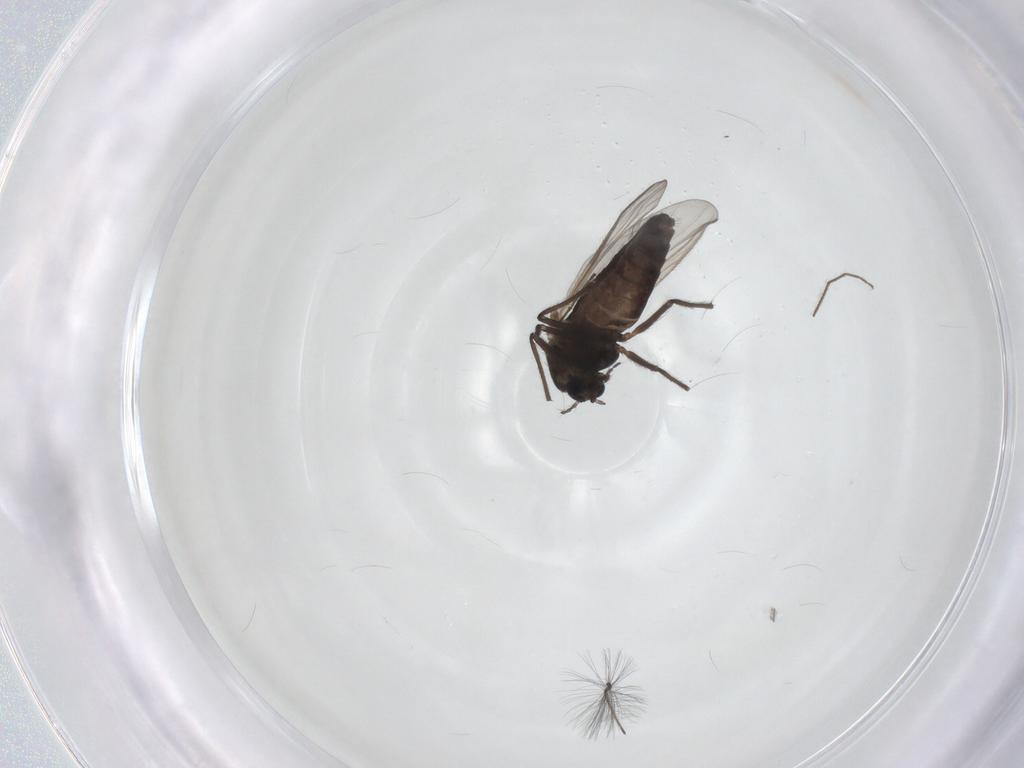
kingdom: Animalia
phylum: Arthropoda
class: Insecta
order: Diptera
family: Chironomidae
